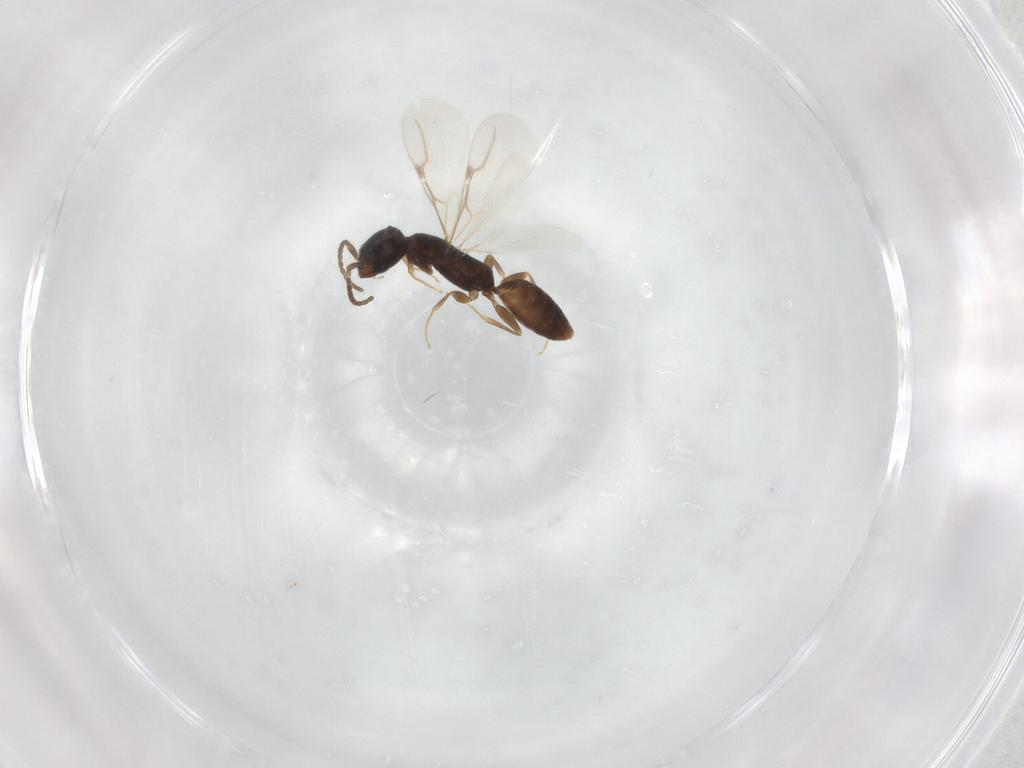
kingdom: Animalia
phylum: Arthropoda
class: Insecta
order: Hymenoptera
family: Bethylidae
